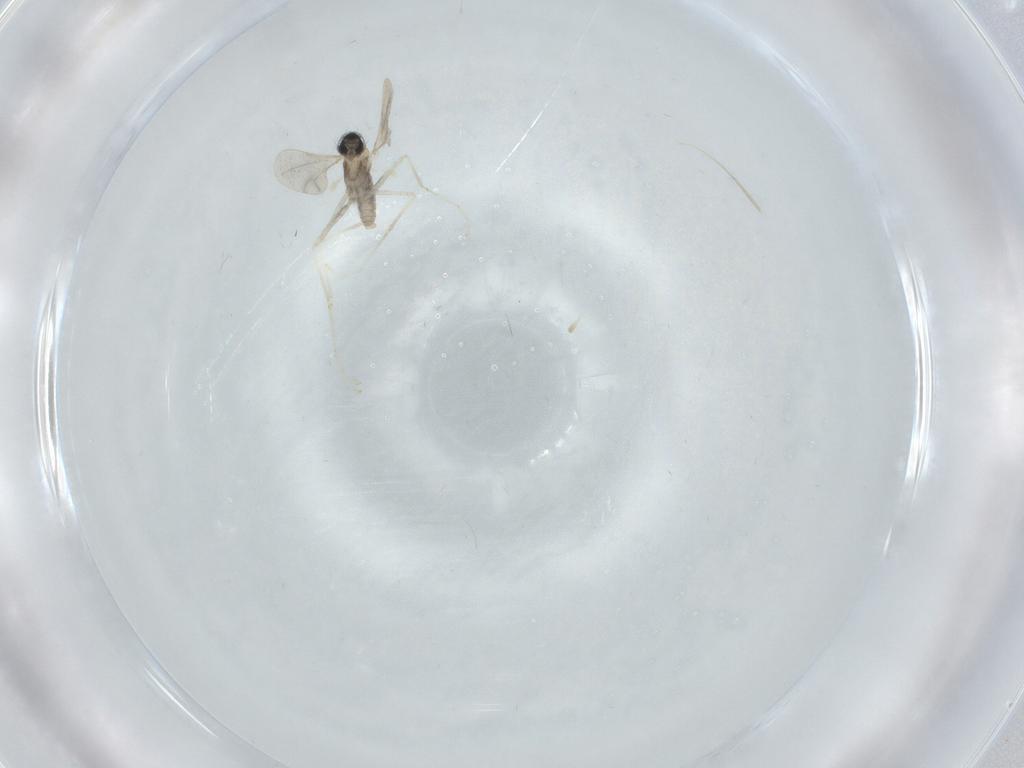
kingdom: Animalia
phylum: Arthropoda
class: Insecta
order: Diptera
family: Cecidomyiidae
